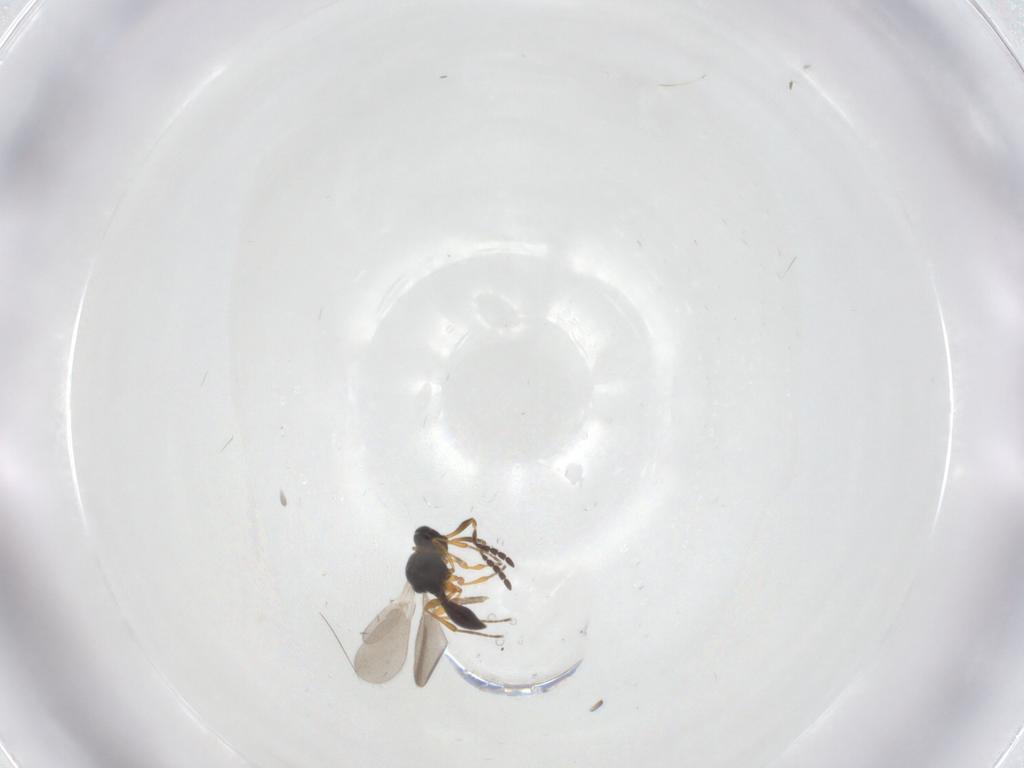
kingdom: Animalia
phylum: Arthropoda
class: Insecta
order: Hymenoptera
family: Platygastridae
